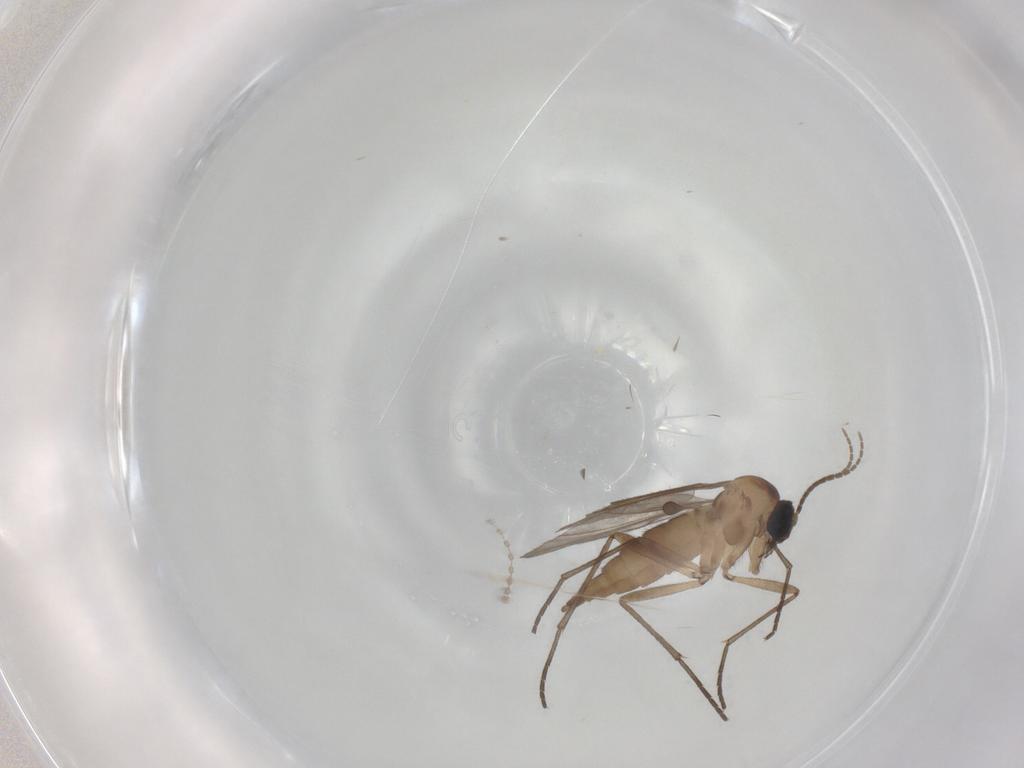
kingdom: Animalia
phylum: Arthropoda
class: Insecta
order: Diptera
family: Sciaridae
